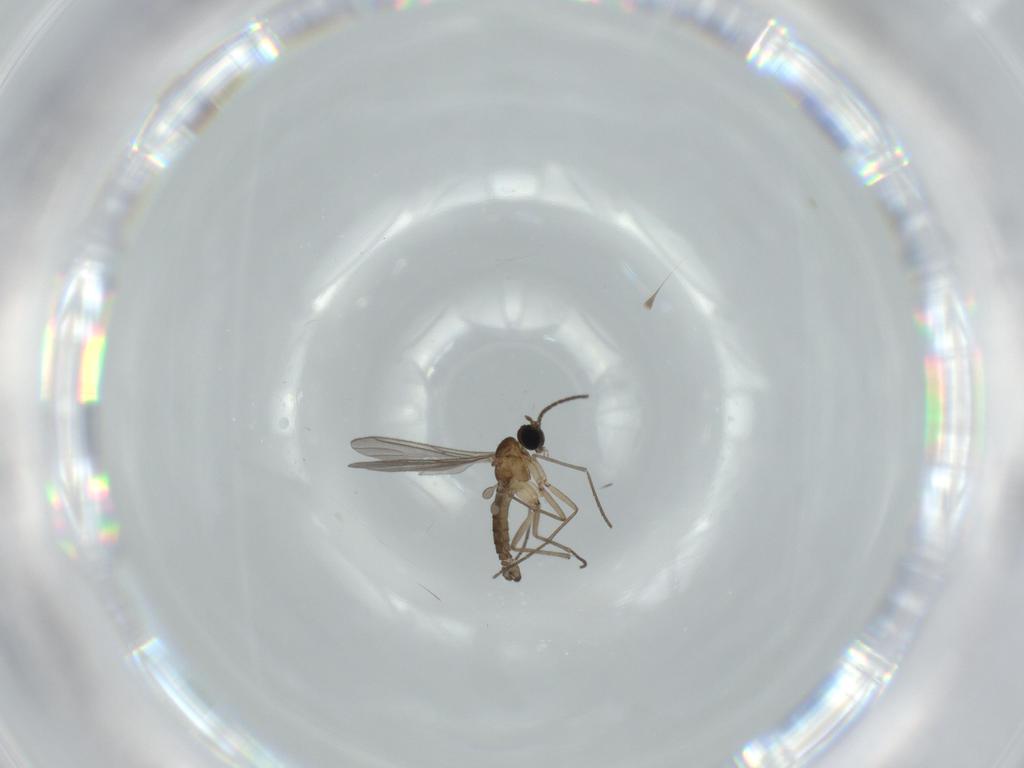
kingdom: Animalia
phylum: Arthropoda
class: Insecta
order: Diptera
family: Sciaridae
